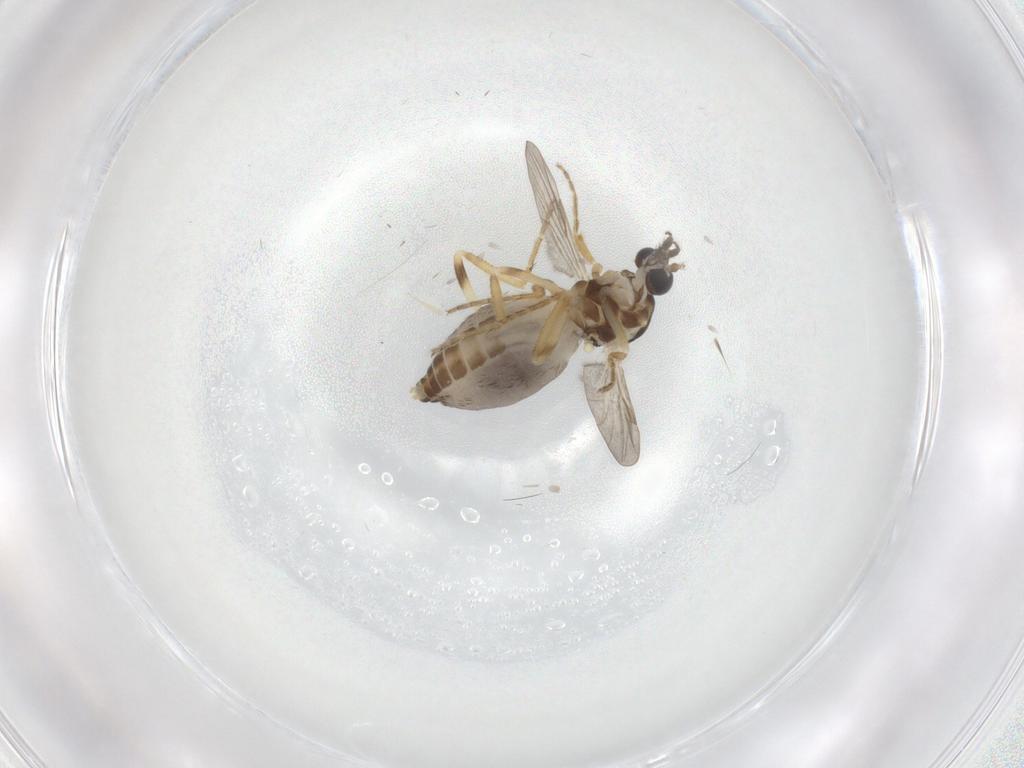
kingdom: Animalia
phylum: Arthropoda
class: Insecta
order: Diptera
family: Ceratopogonidae
